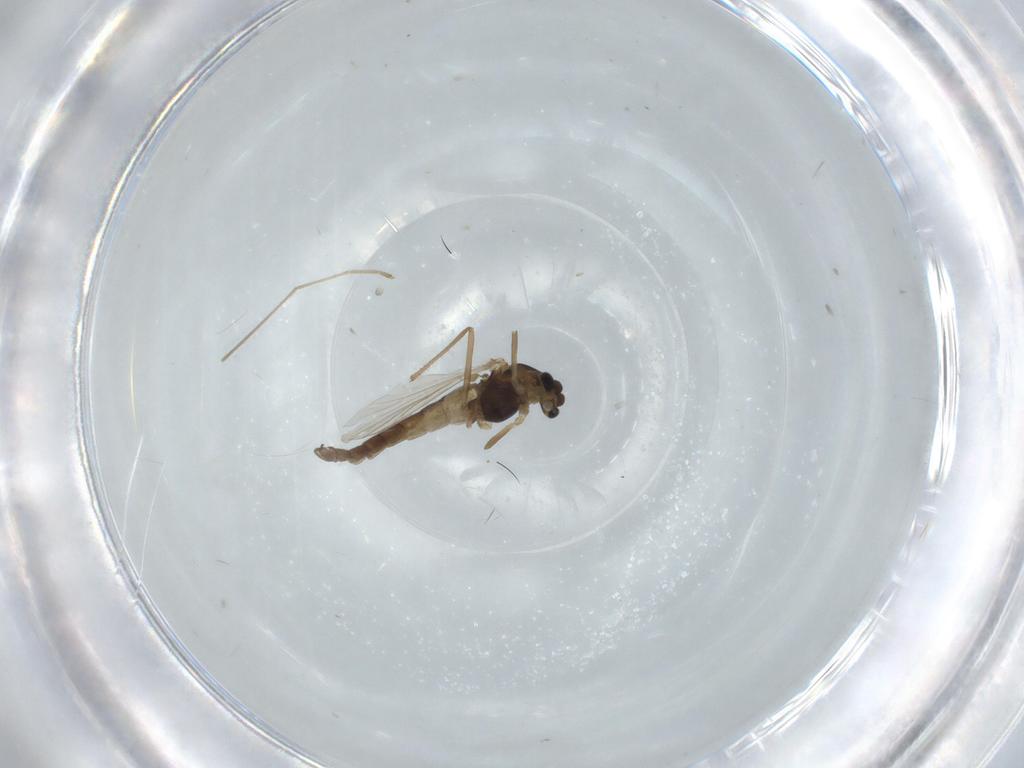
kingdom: Animalia
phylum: Arthropoda
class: Insecta
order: Diptera
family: Chironomidae
